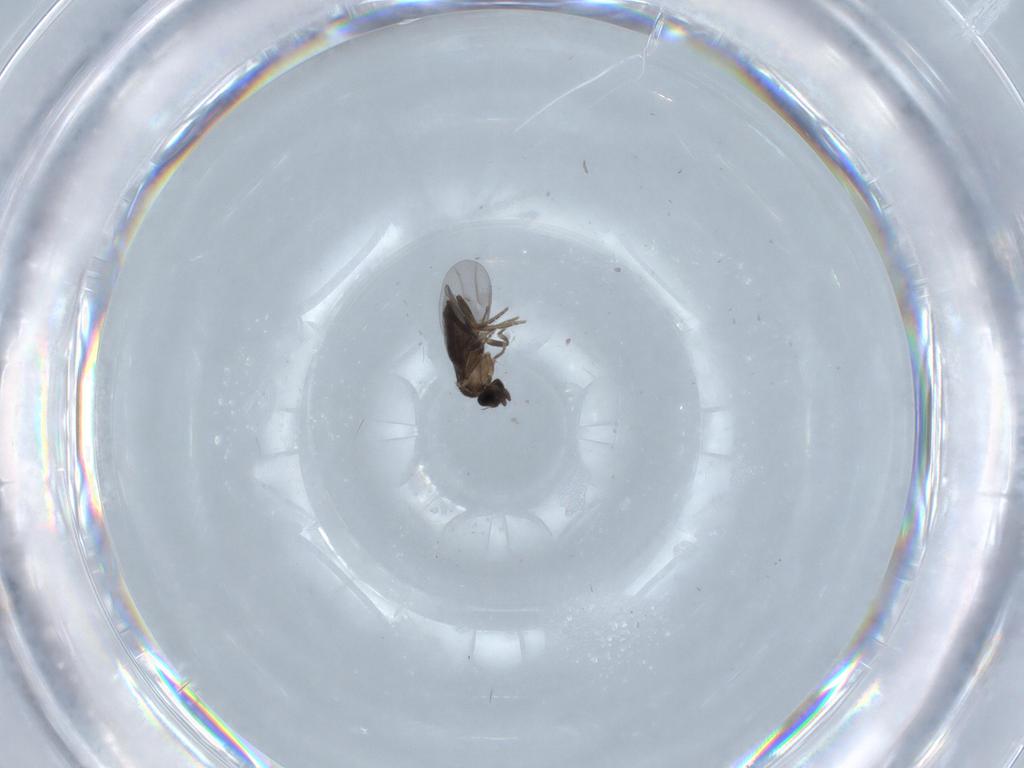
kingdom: Animalia
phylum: Arthropoda
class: Insecta
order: Diptera
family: Cecidomyiidae
